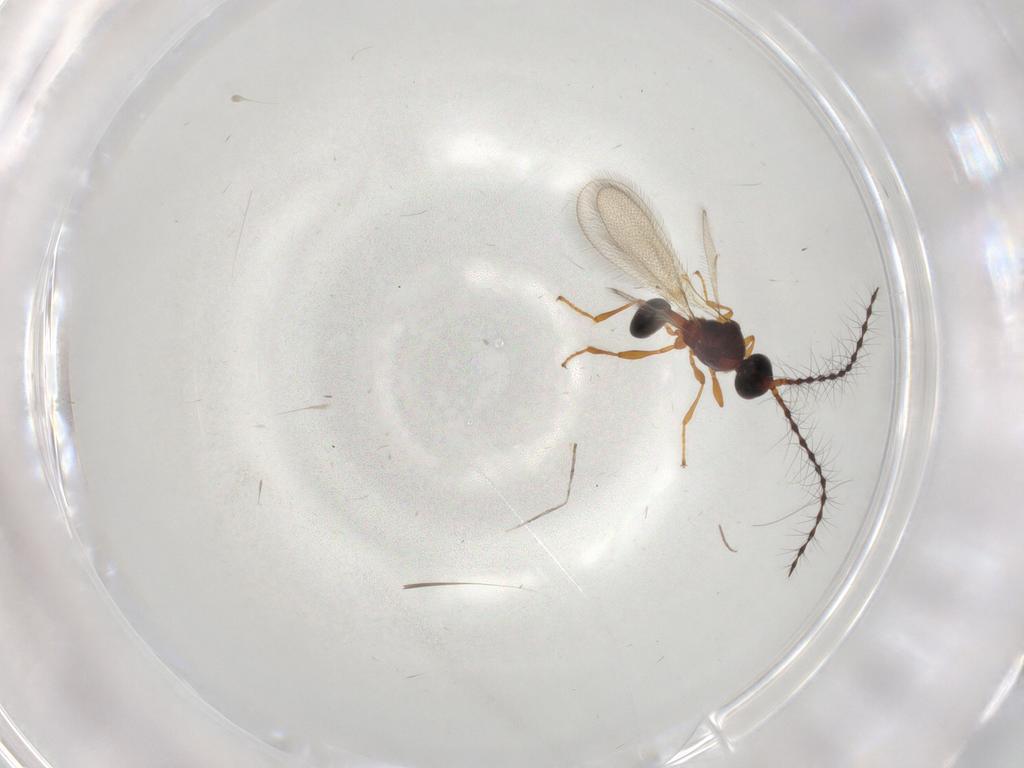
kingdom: Animalia
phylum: Arthropoda
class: Insecta
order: Hymenoptera
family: Diapriidae
